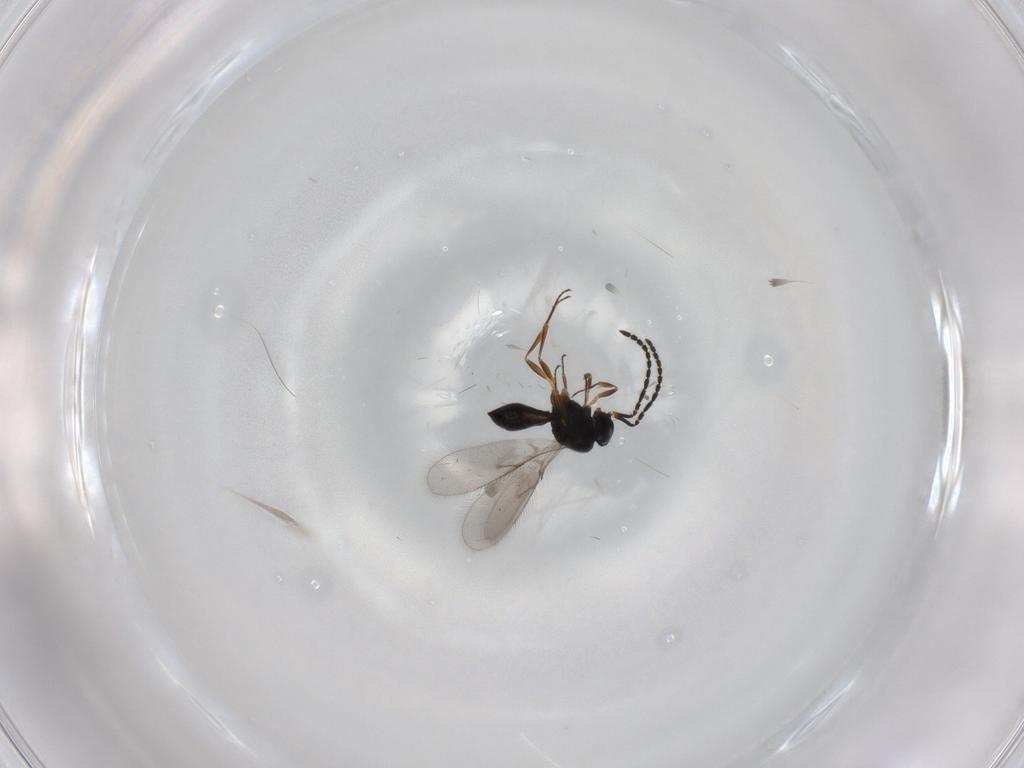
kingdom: Animalia
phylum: Arthropoda
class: Insecta
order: Hymenoptera
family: Scelionidae
